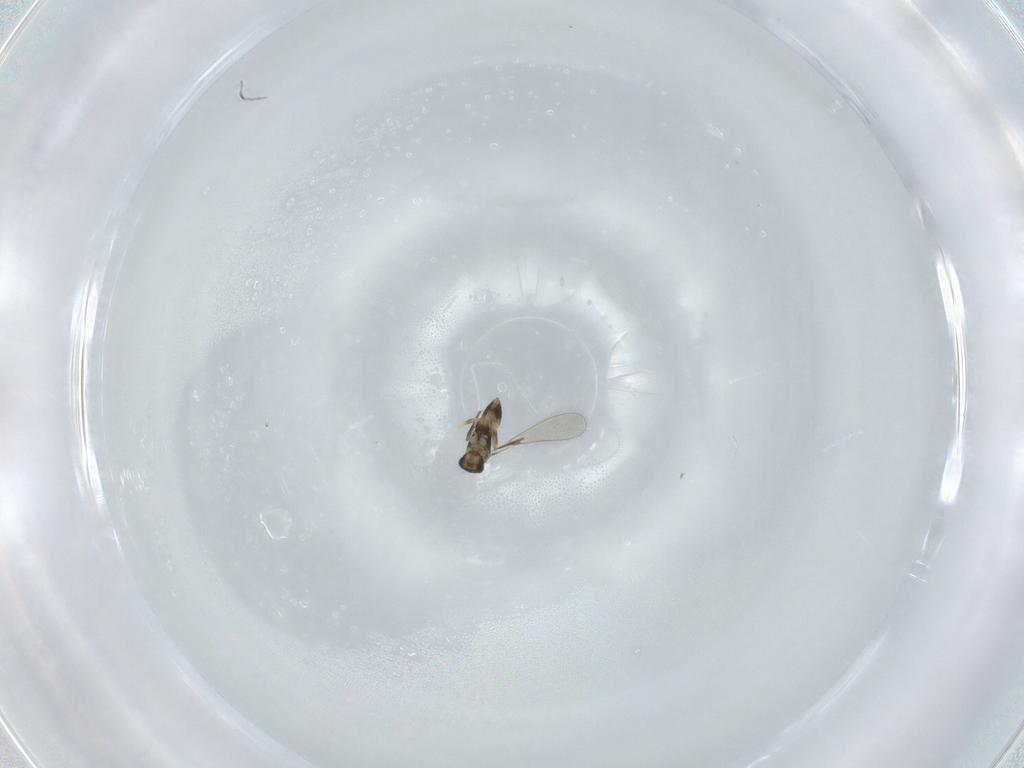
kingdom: Animalia
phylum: Arthropoda
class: Insecta
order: Hymenoptera
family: Mymaridae
